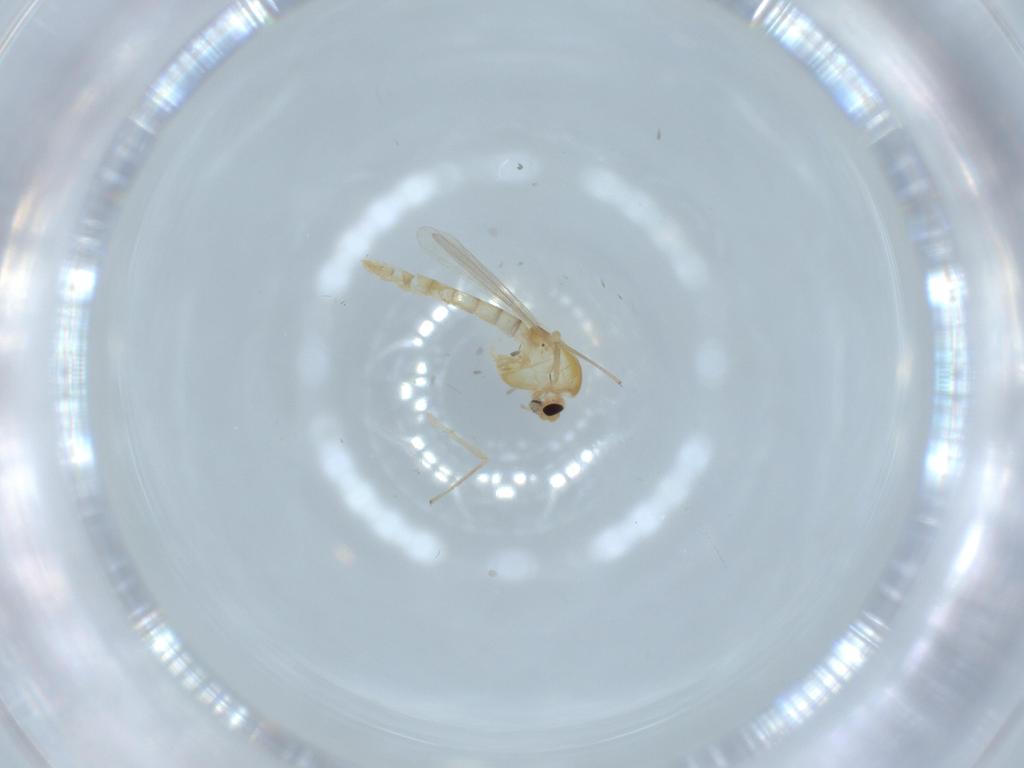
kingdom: Animalia
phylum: Arthropoda
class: Insecta
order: Diptera
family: Chironomidae
